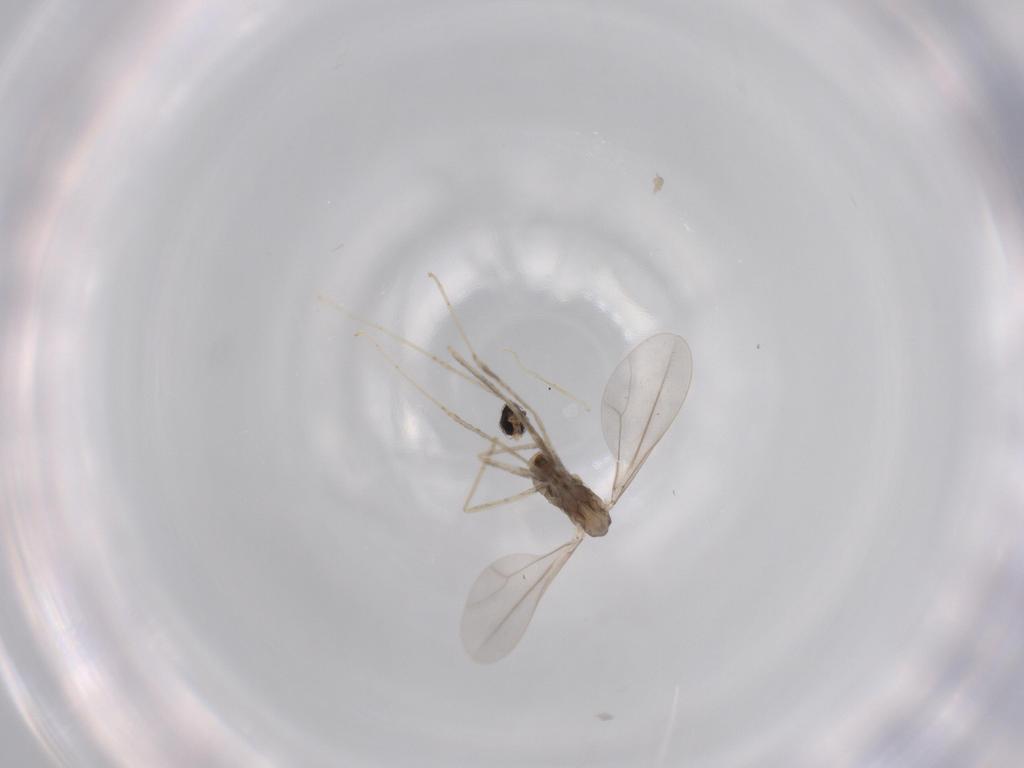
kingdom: Animalia
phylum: Arthropoda
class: Insecta
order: Diptera
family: Cecidomyiidae
